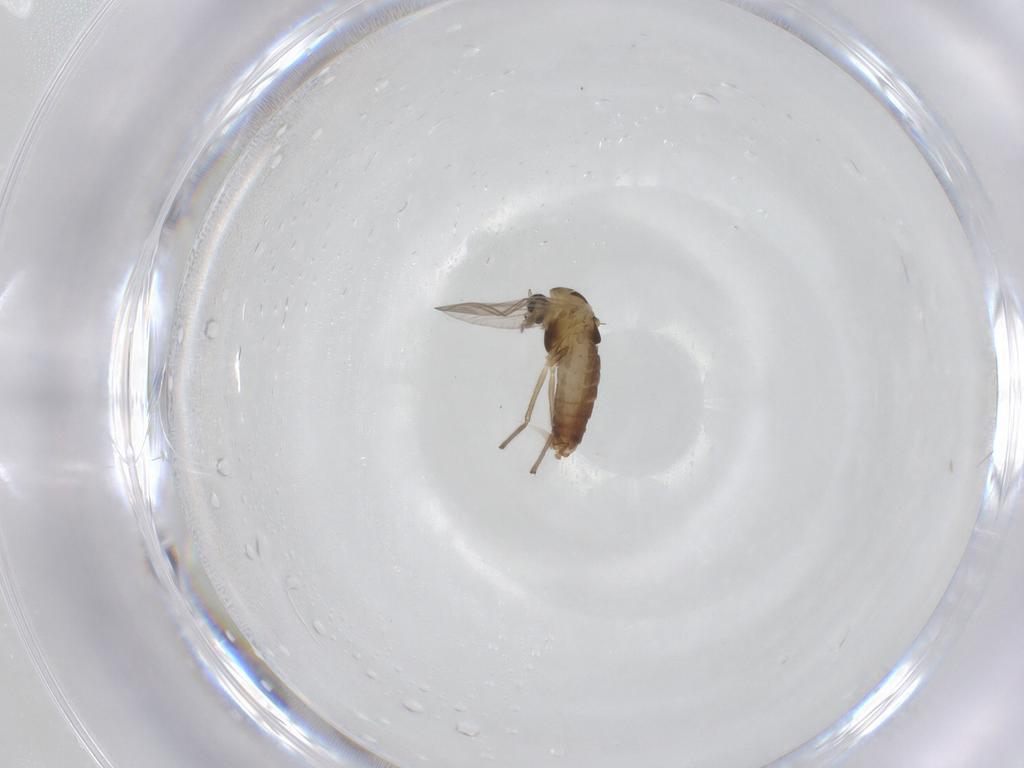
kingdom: Animalia
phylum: Arthropoda
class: Insecta
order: Diptera
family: Chironomidae
